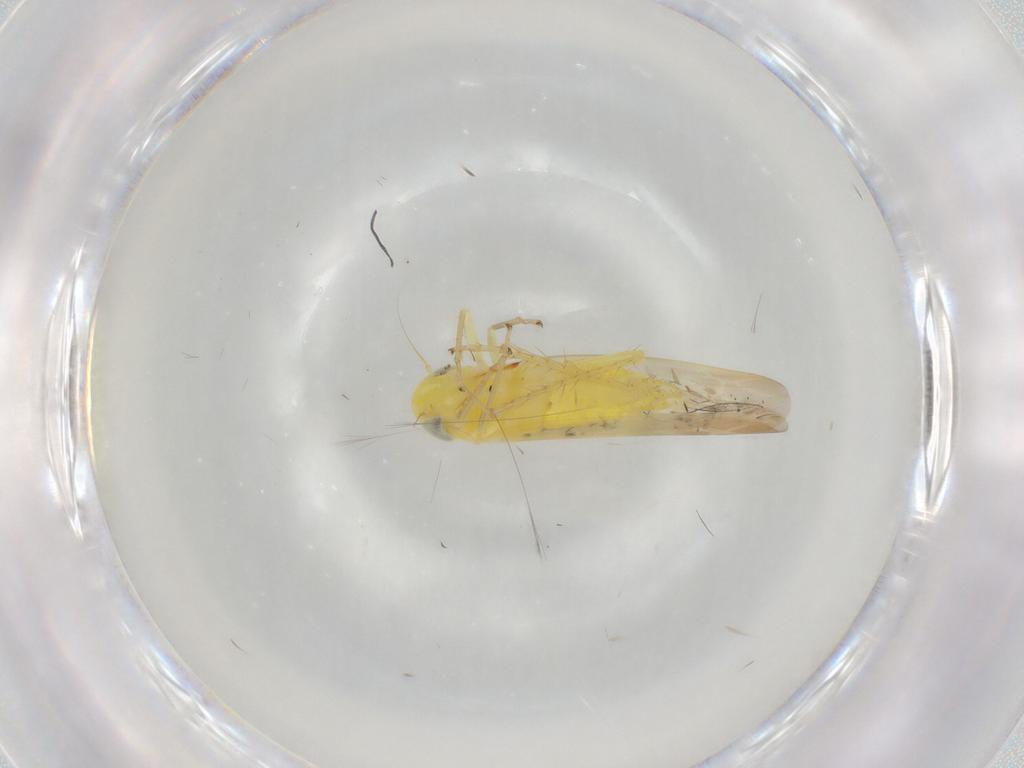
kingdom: Animalia
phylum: Arthropoda
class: Insecta
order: Hemiptera
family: Cicadellidae
